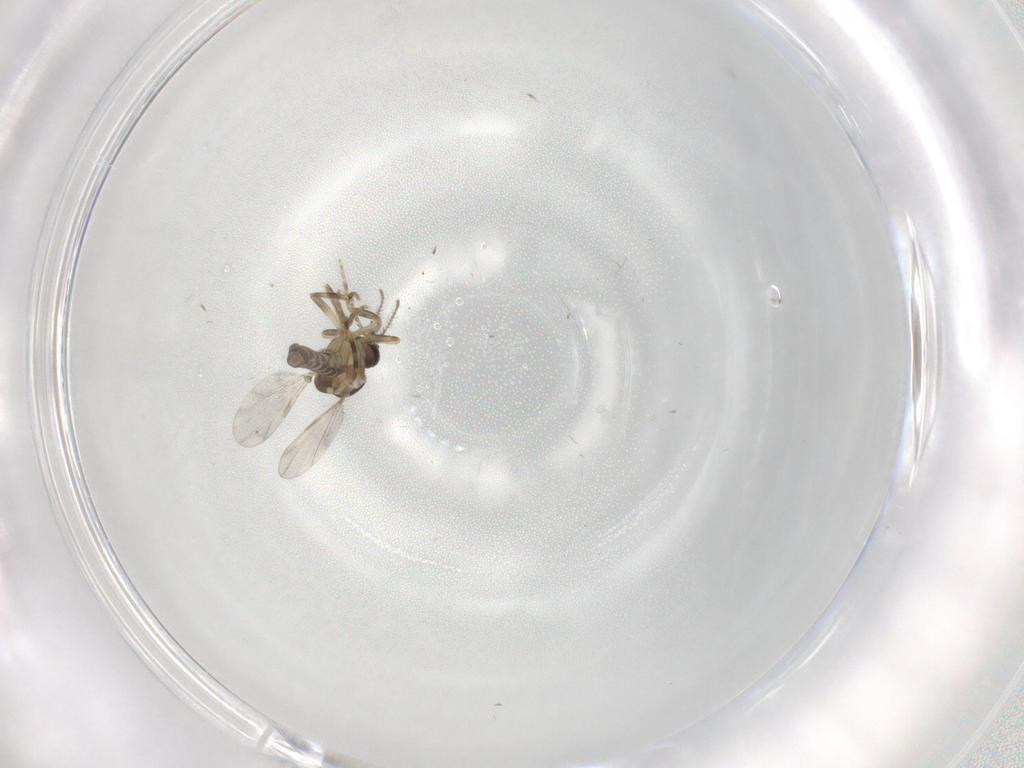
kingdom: Animalia
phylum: Arthropoda
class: Insecta
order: Diptera
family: Ceratopogonidae
